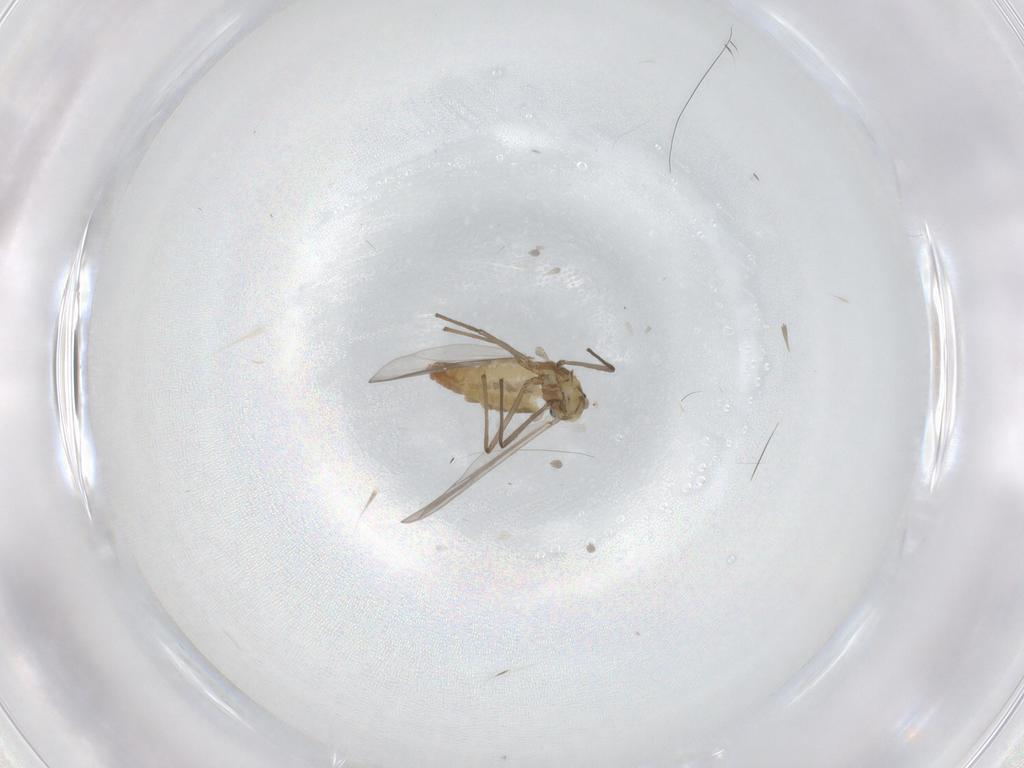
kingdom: Animalia
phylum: Arthropoda
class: Insecta
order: Diptera
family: Chironomidae
